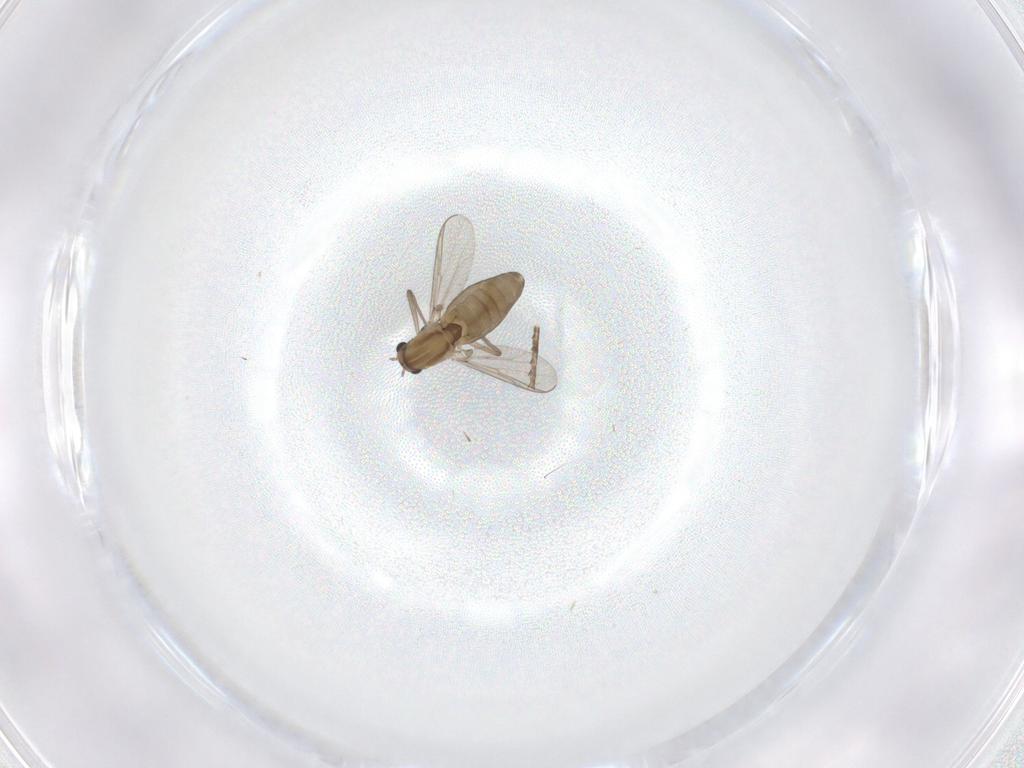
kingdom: Animalia
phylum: Arthropoda
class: Insecta
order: Diptera
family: Chironomidae
